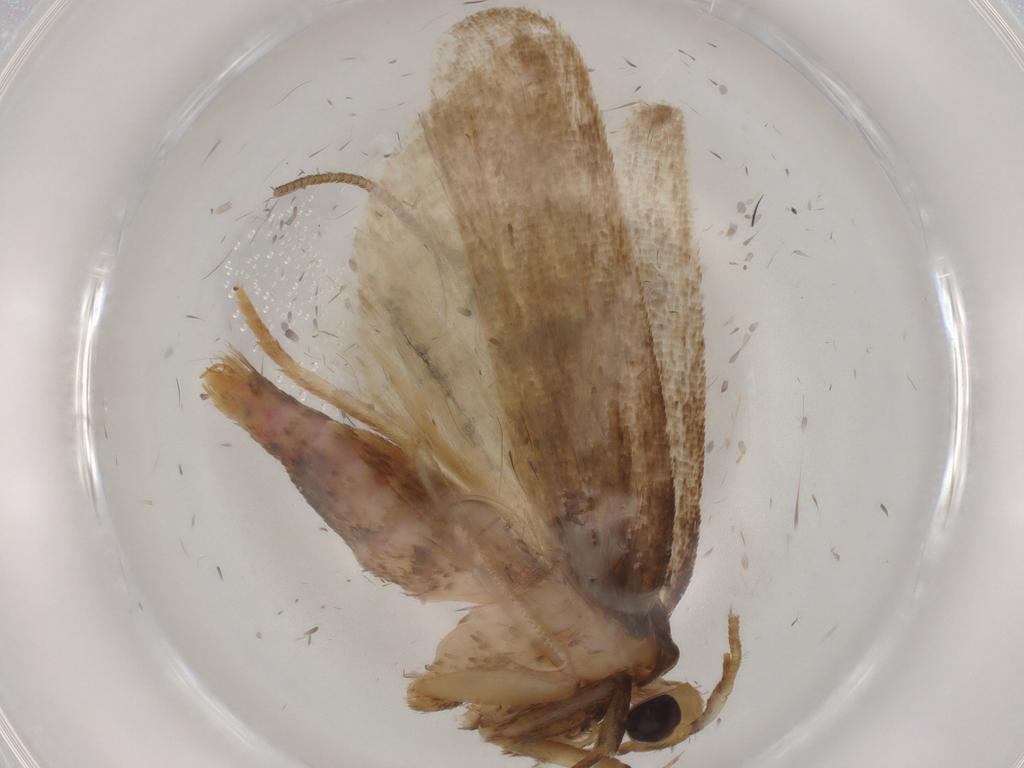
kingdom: Animalia
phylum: Arthropoda
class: Insecta
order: Lepidoptera
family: Autostichidae
